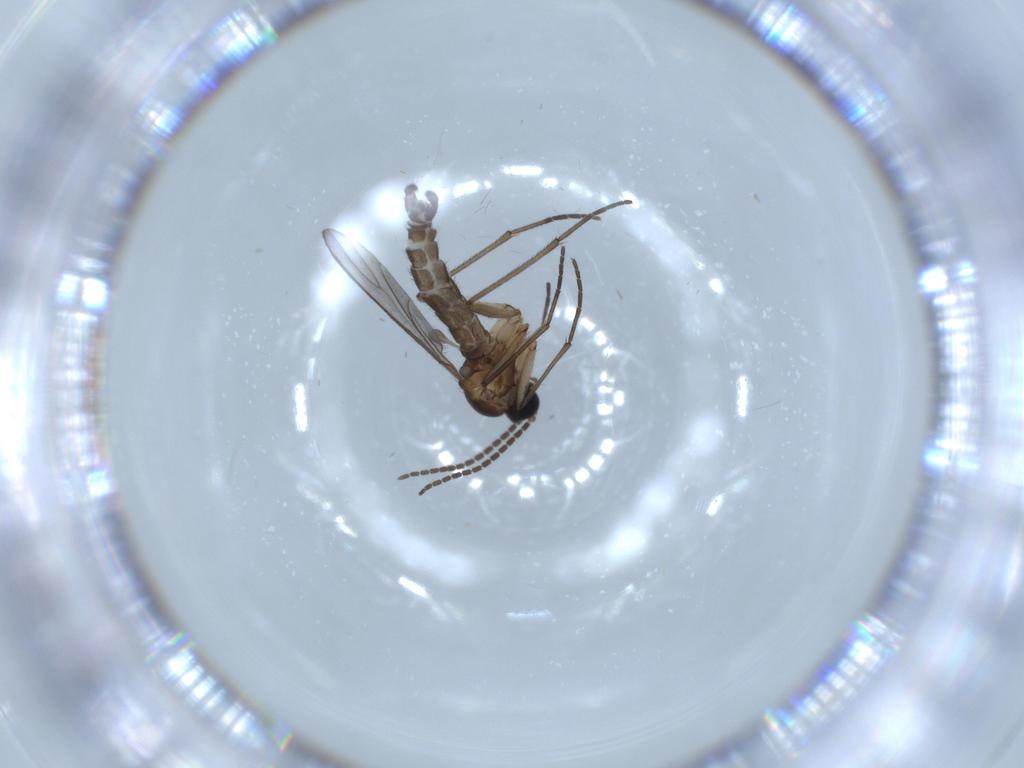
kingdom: Animalia
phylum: Arthropoda
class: Insecta
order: Diptera
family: Sciaridae
